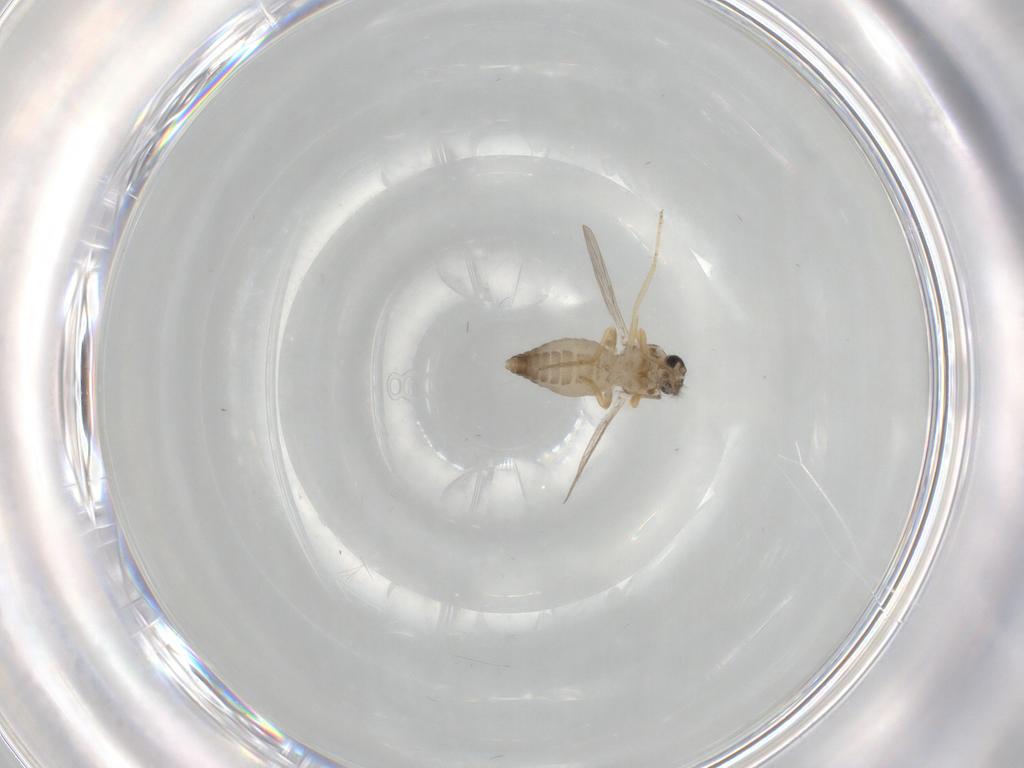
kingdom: Animalia
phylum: Arthropoda
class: Insecta
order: Diptera
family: Ceratopogonidae
